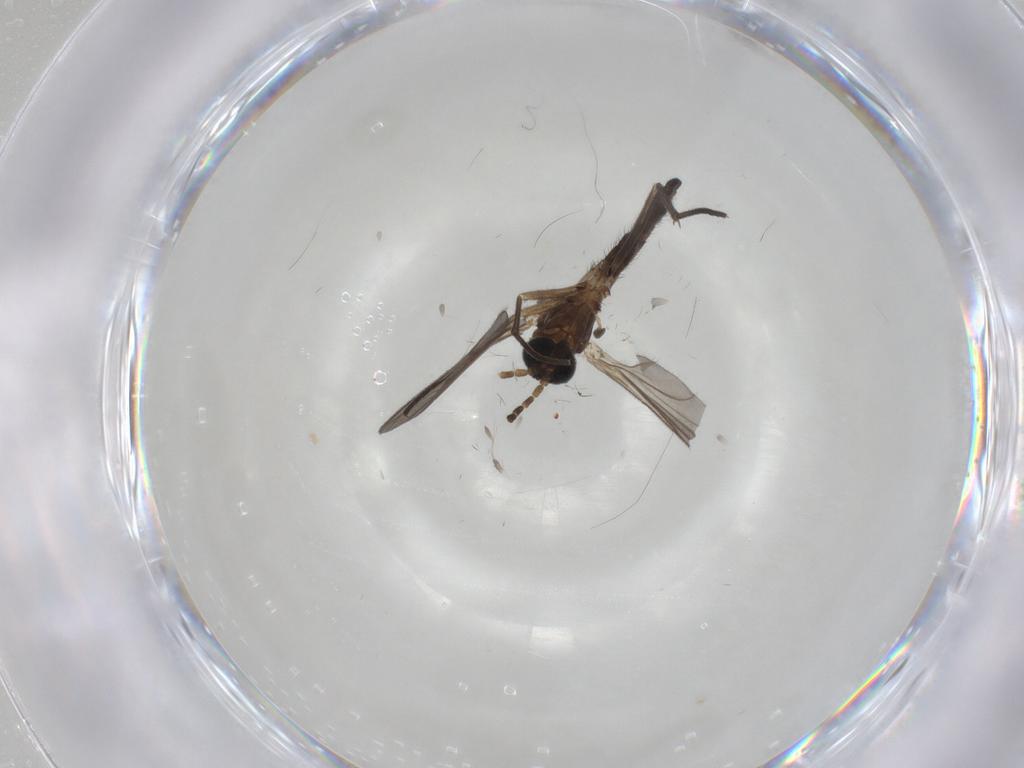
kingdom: Animalia
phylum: Arthropoda
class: Insecta
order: Diptera
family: Sciaridae
